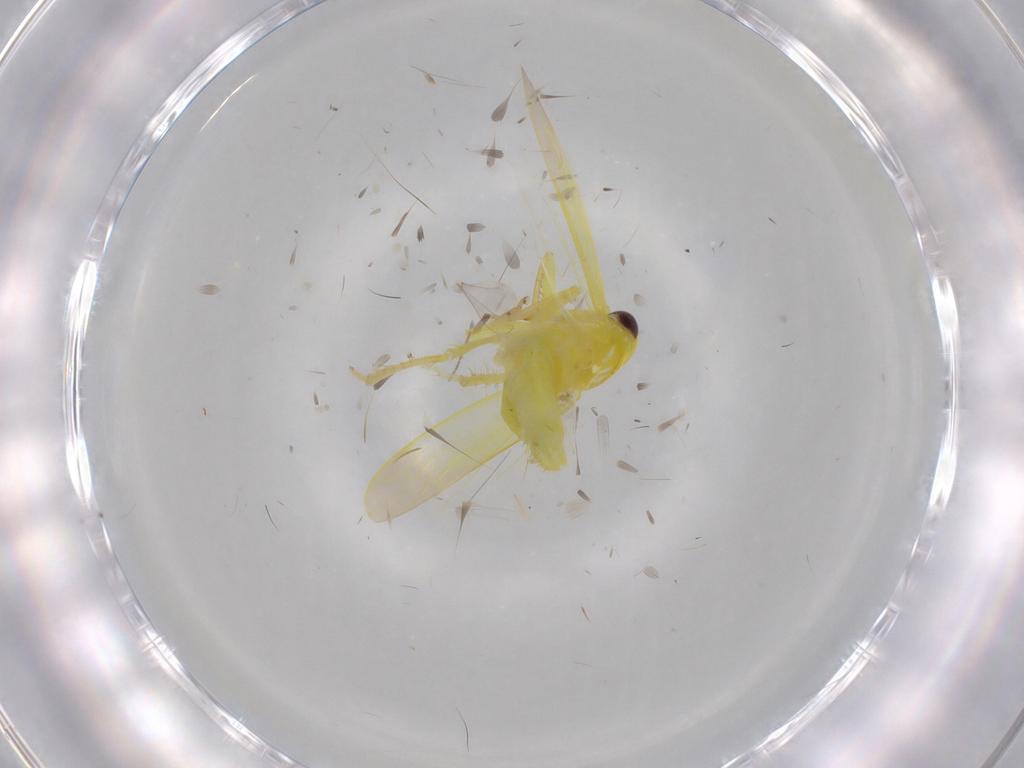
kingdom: Animalia
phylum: Arthropoda
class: Insecta
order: Hemiptera
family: Cicadellidae
